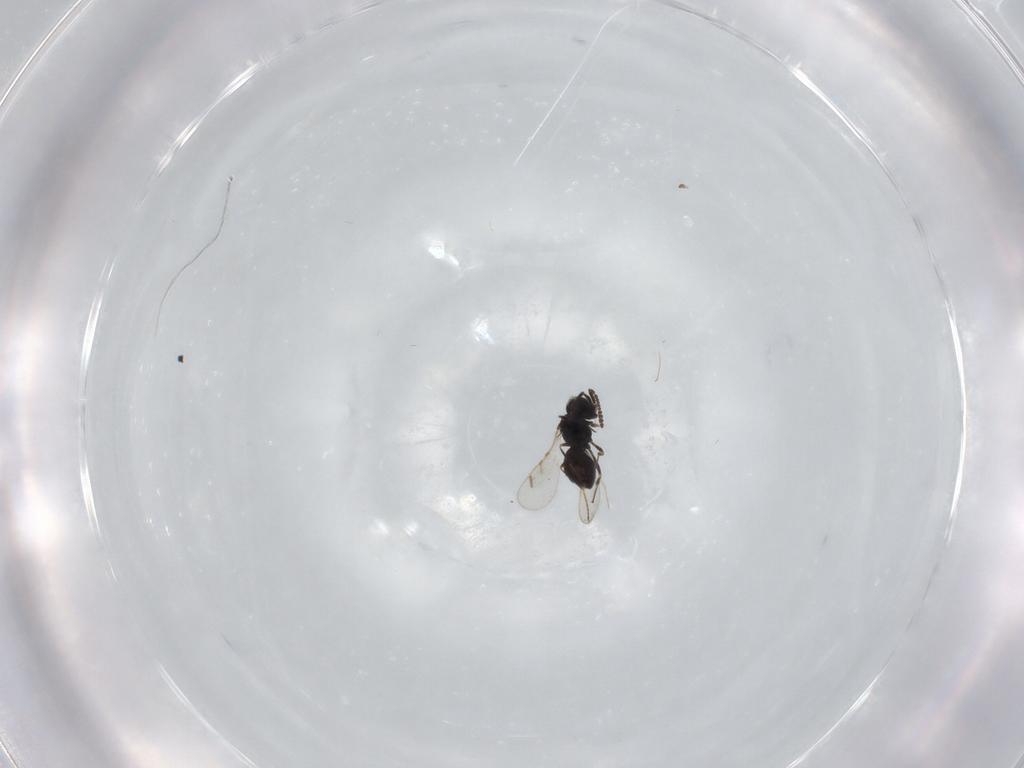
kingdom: Animalia
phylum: Arthropoda
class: Insecta
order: Hymenoptera
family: Scelionidae
